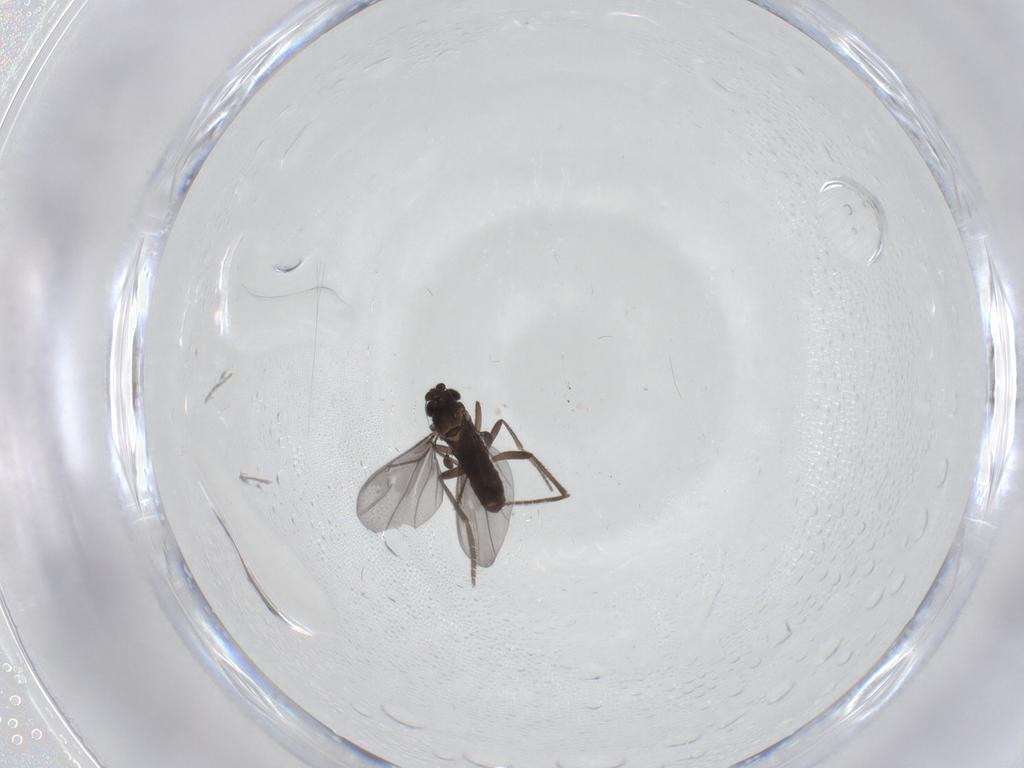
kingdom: Animalia
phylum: Arthropoda
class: Insecta
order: Diptera
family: Phoridae
